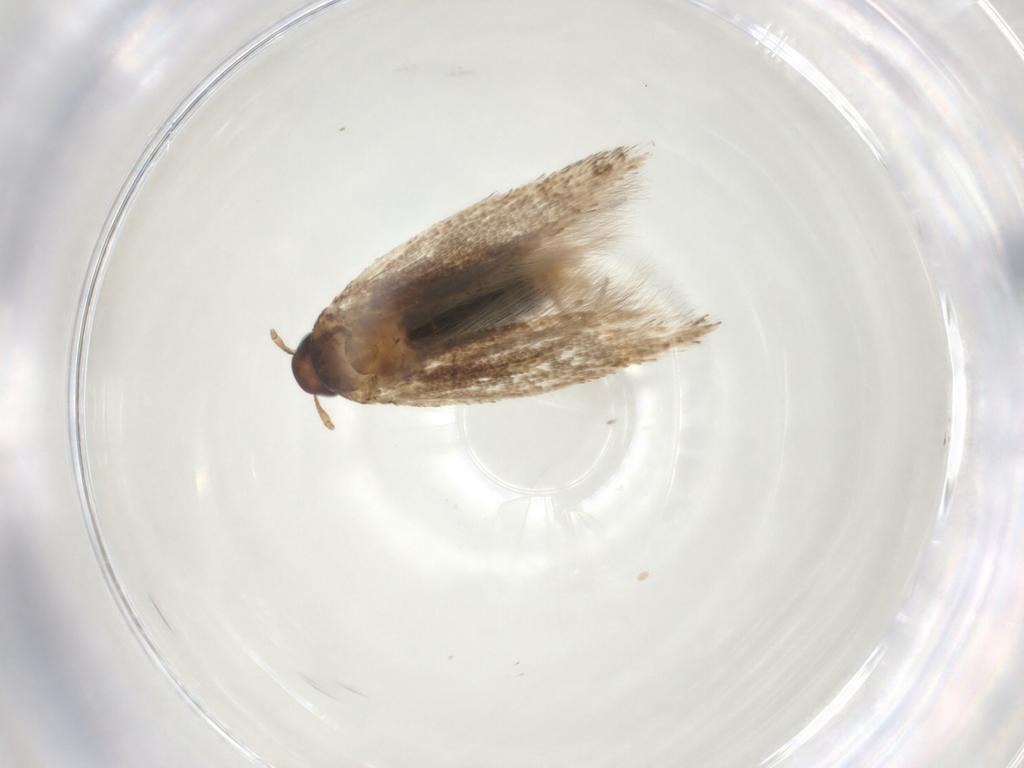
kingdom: Animalia
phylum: Arthropoda
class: Insecta
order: Lepidoptera
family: Cosmopterigidae
